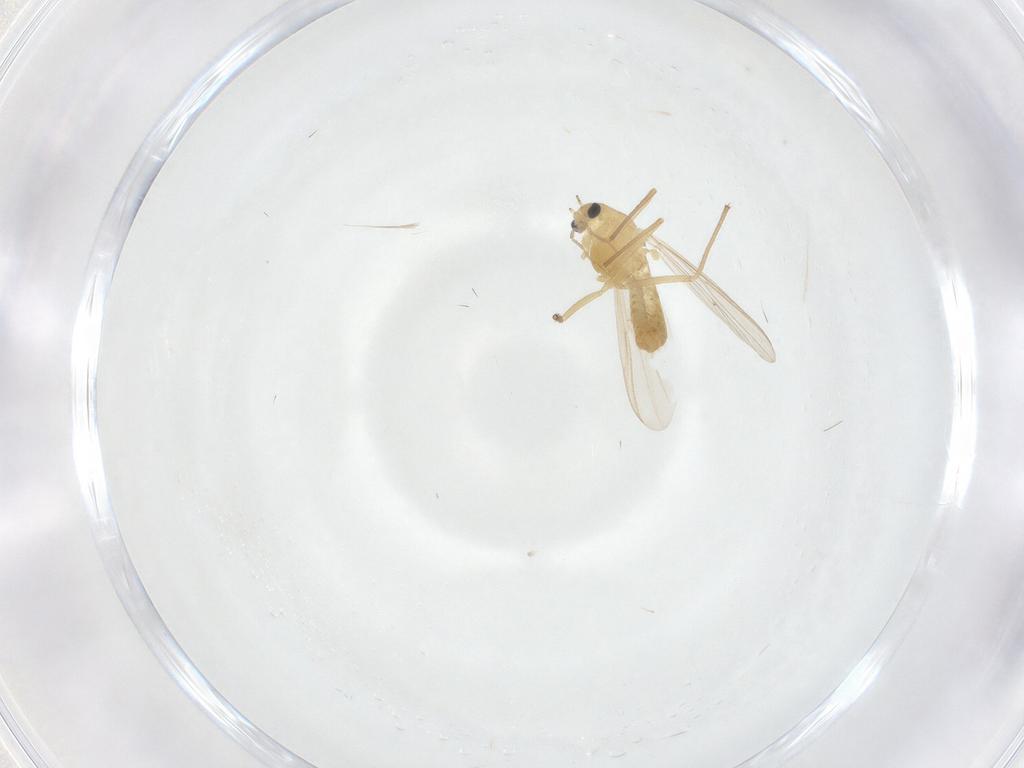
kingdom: Animalia
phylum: Arthropoda
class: Insecta
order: Diptera
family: Chironomidae
